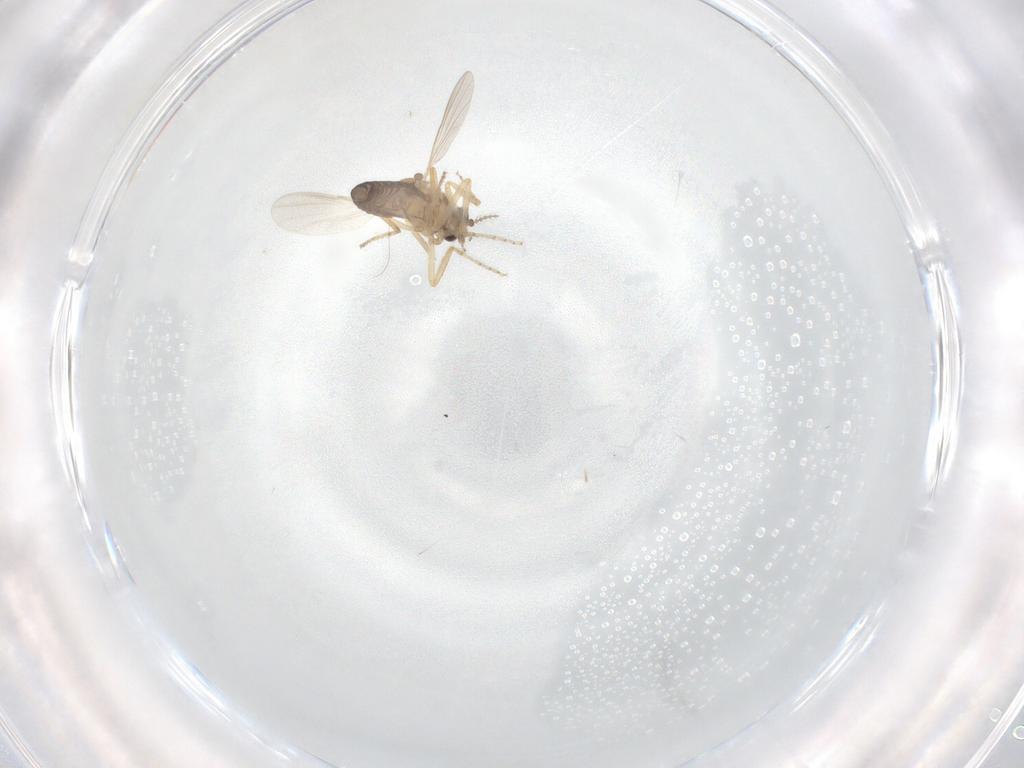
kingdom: Animalia
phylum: Arthropoda
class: Insecta
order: Diptera
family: Ceratopogonidae
